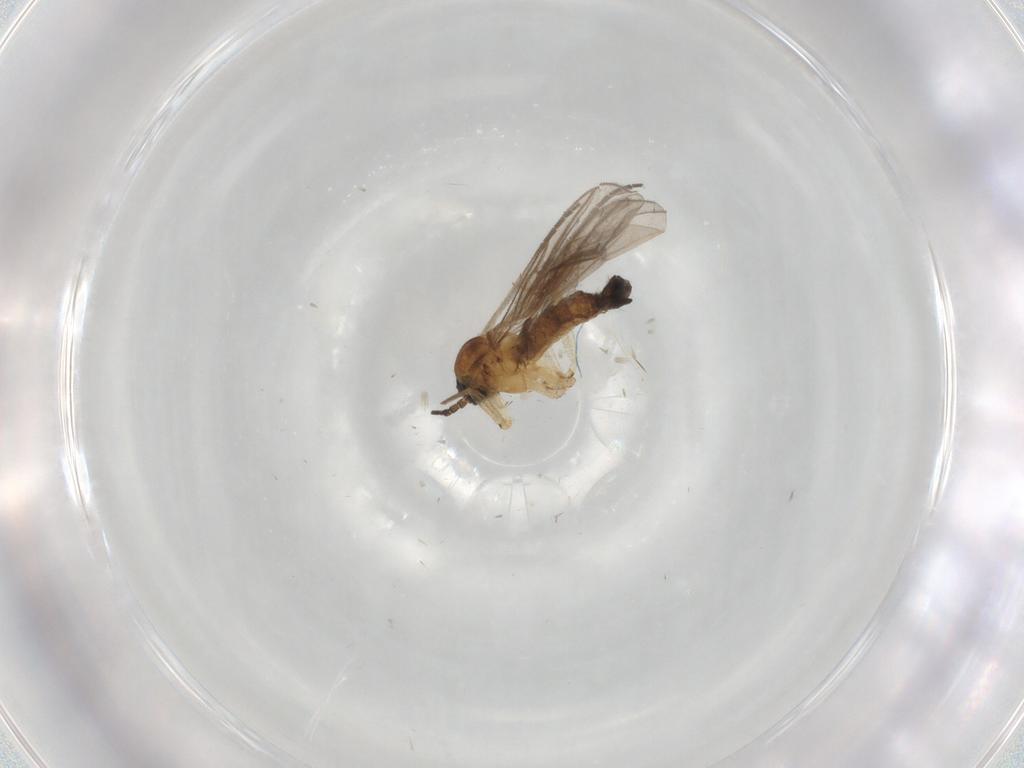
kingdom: Animalia
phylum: Arthropoda
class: Insecta
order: Diptera
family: Sciaridae
